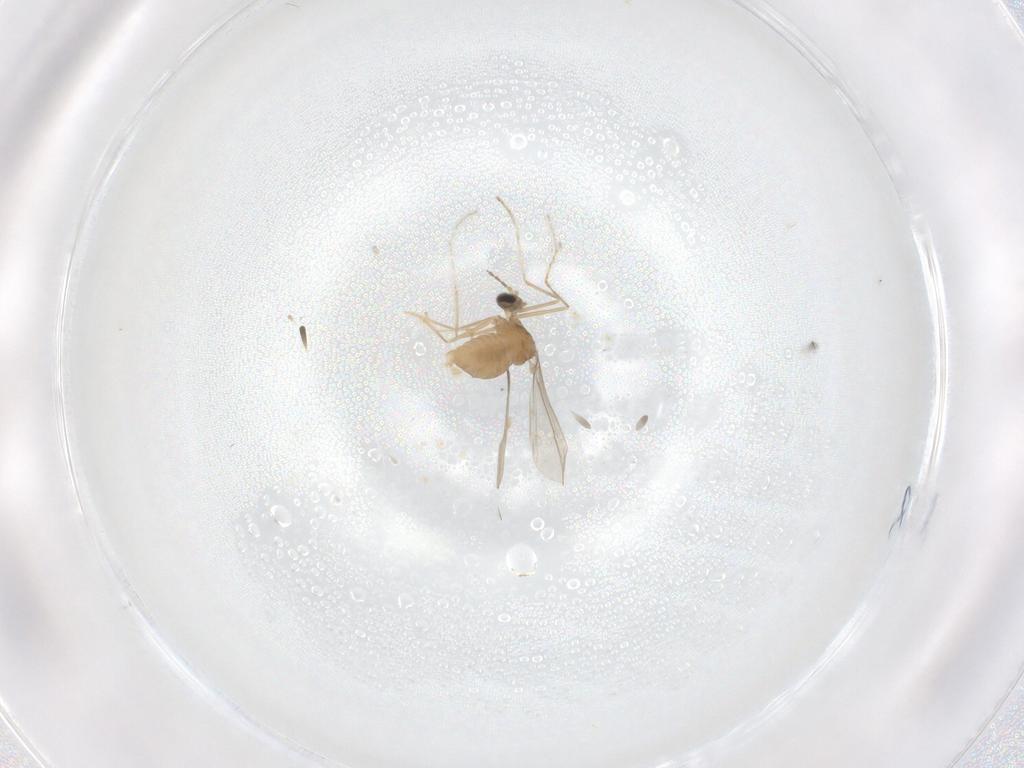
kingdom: Animalia
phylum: Arthropoda
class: Insecta
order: Diptera
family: Cecidomyiidae
